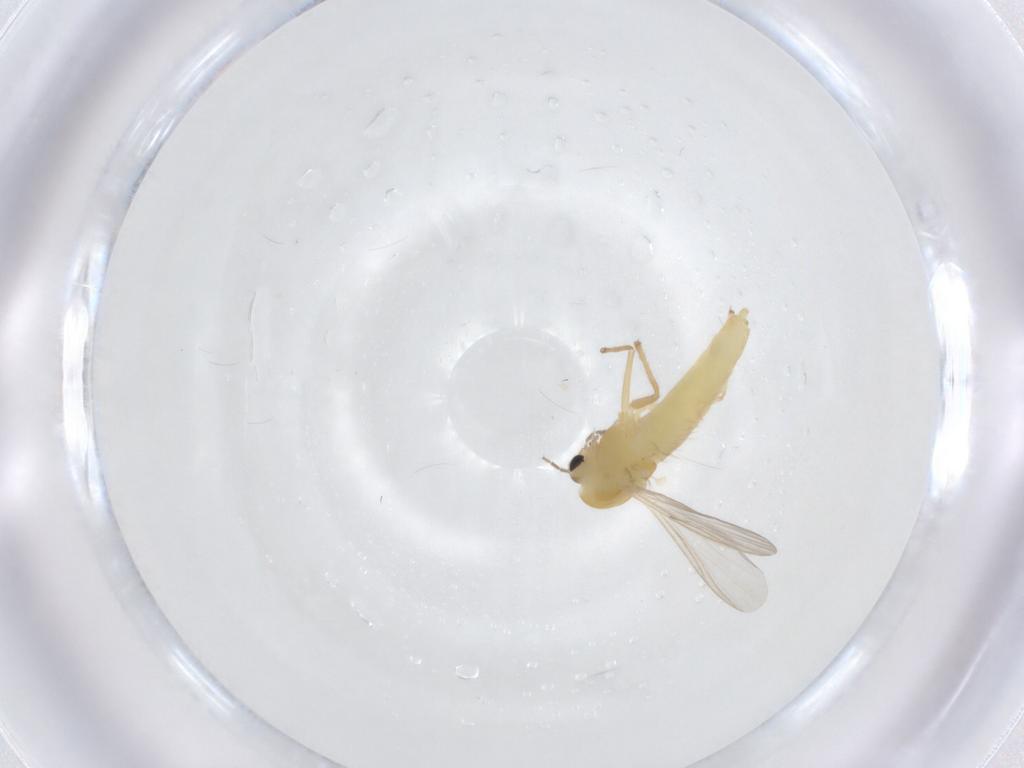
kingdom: Animalia
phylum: Arthropoda
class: Insecta
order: Diptera
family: Chironomidae
